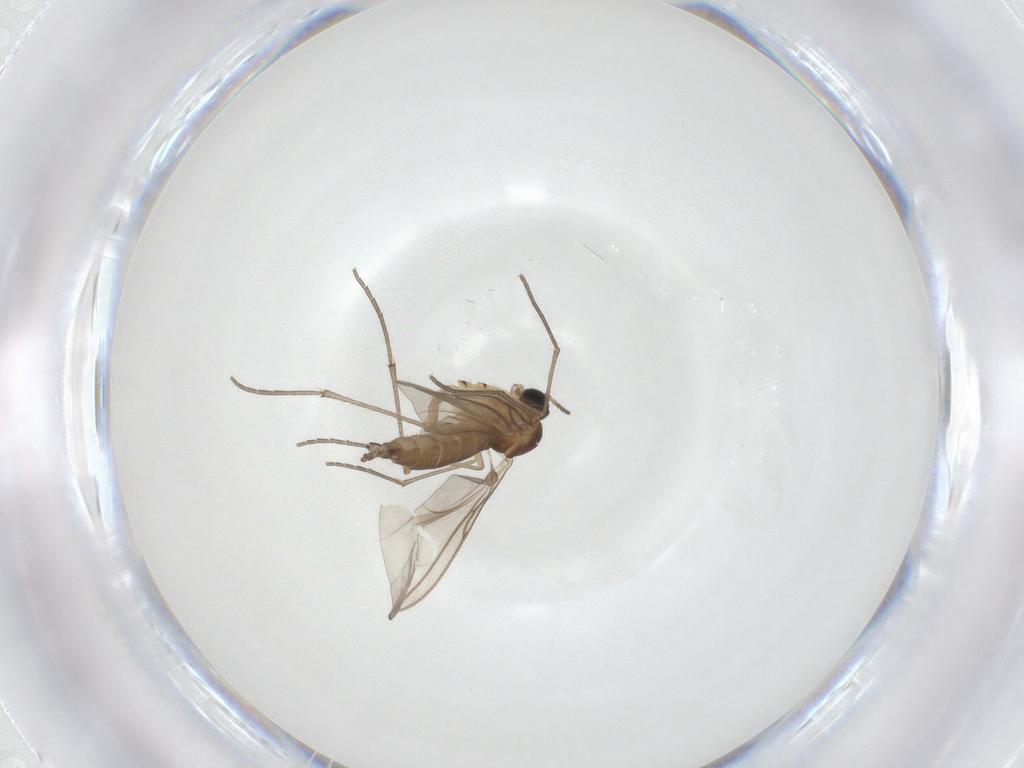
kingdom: Animalia
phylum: Arthropoda
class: Insecta
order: Diptera
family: Sciaridae
